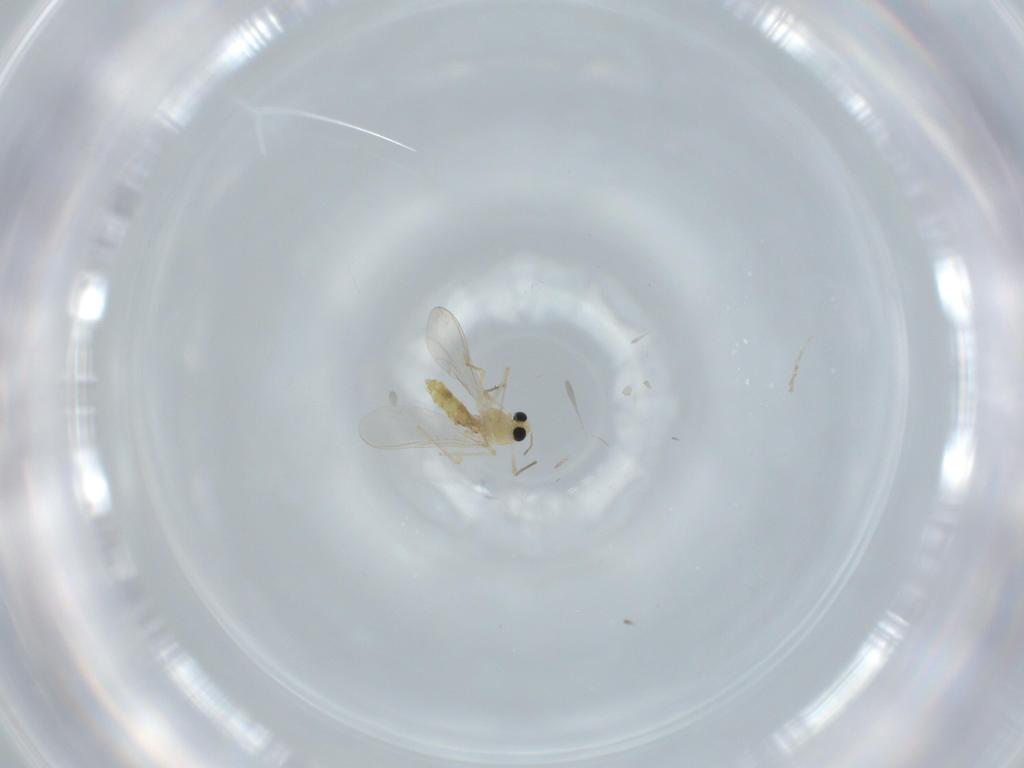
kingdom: Animalia
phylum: Arthropoda
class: Insecta
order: Diptera
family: Chironomidae
